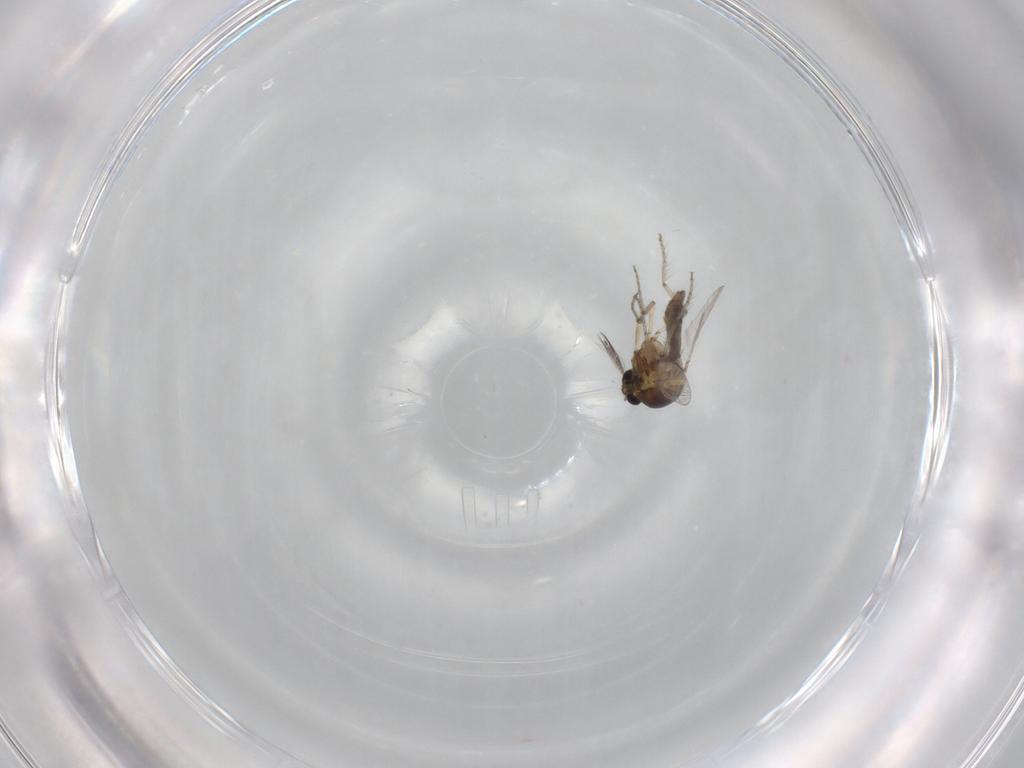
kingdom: Animalia
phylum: Arthropoda
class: Insecta
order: Diptera
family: Ceratopogonidae
